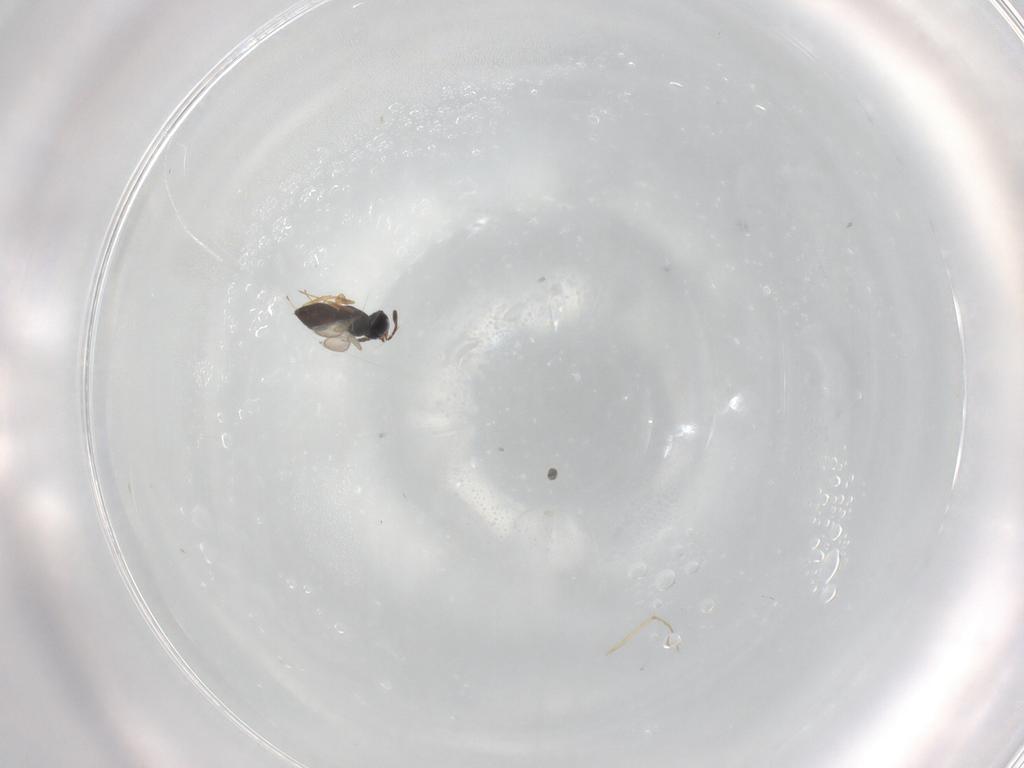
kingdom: Animalia
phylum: Arthropoda
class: Insecta
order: Hymenoptera
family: Scelionidae
